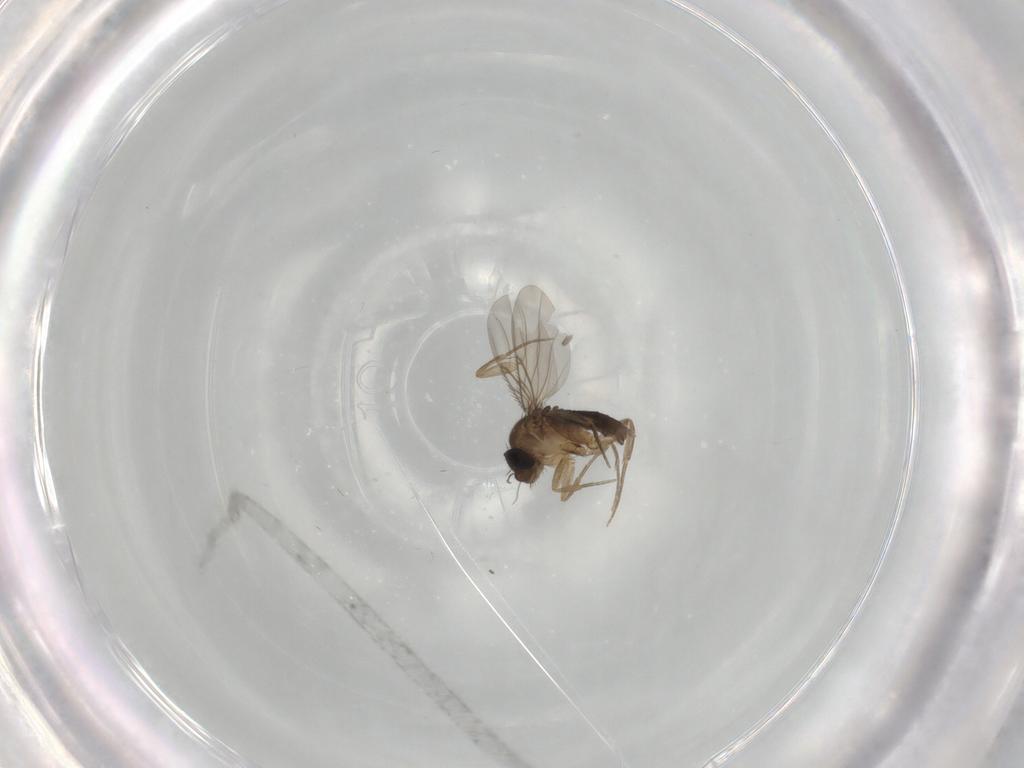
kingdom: Animalia
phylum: Arthropoda
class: Insecta
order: Diptera
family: Phoridae
